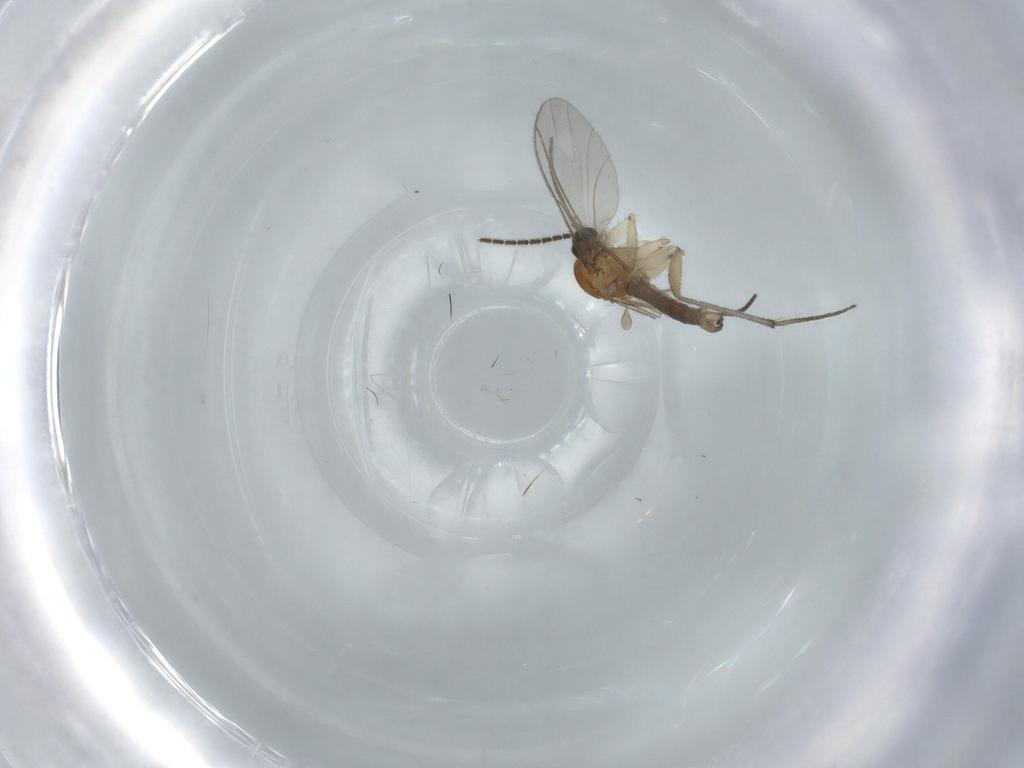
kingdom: Animalia
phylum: Arthropoda
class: Insecta
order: Diptera
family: Sciaridae
